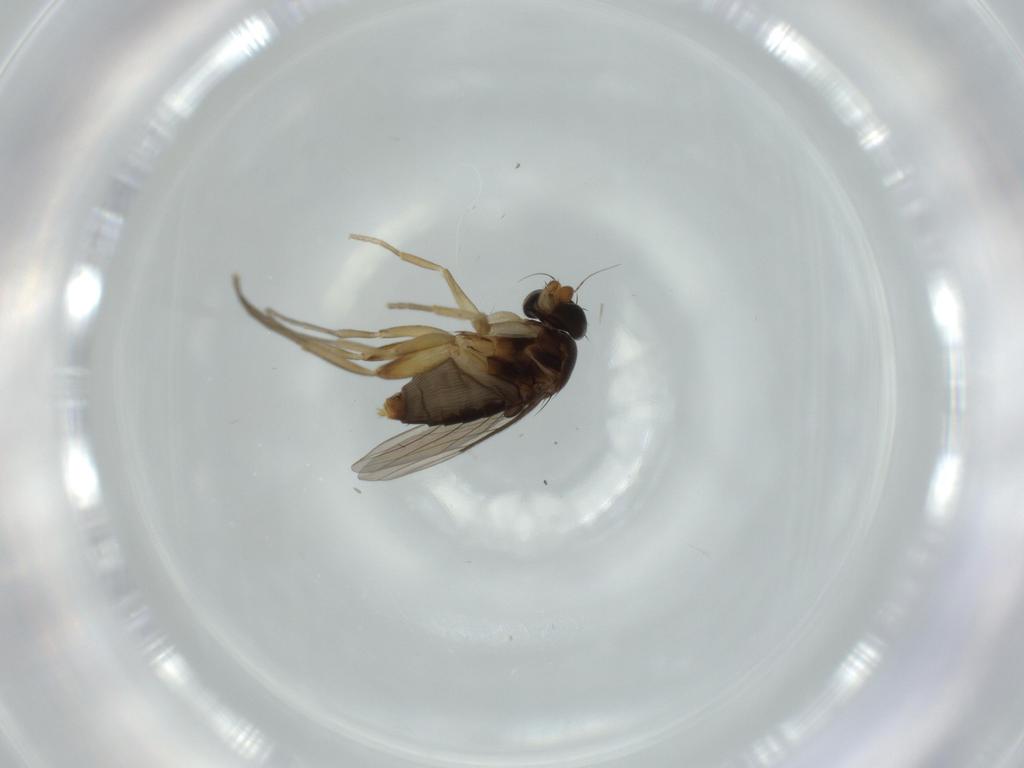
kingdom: Animalia
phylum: Arthropoda
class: Insecta
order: Diptera
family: Phoridae
